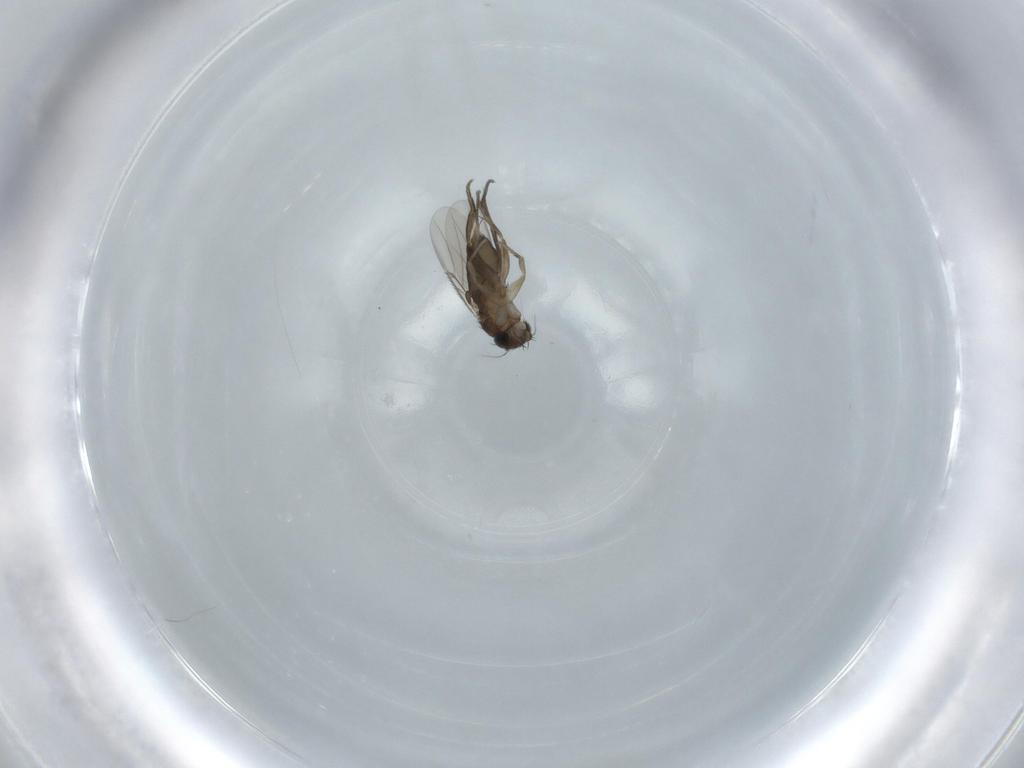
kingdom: Animalia
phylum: Arthropoda
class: Insecta
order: Diptera
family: Phoridae
